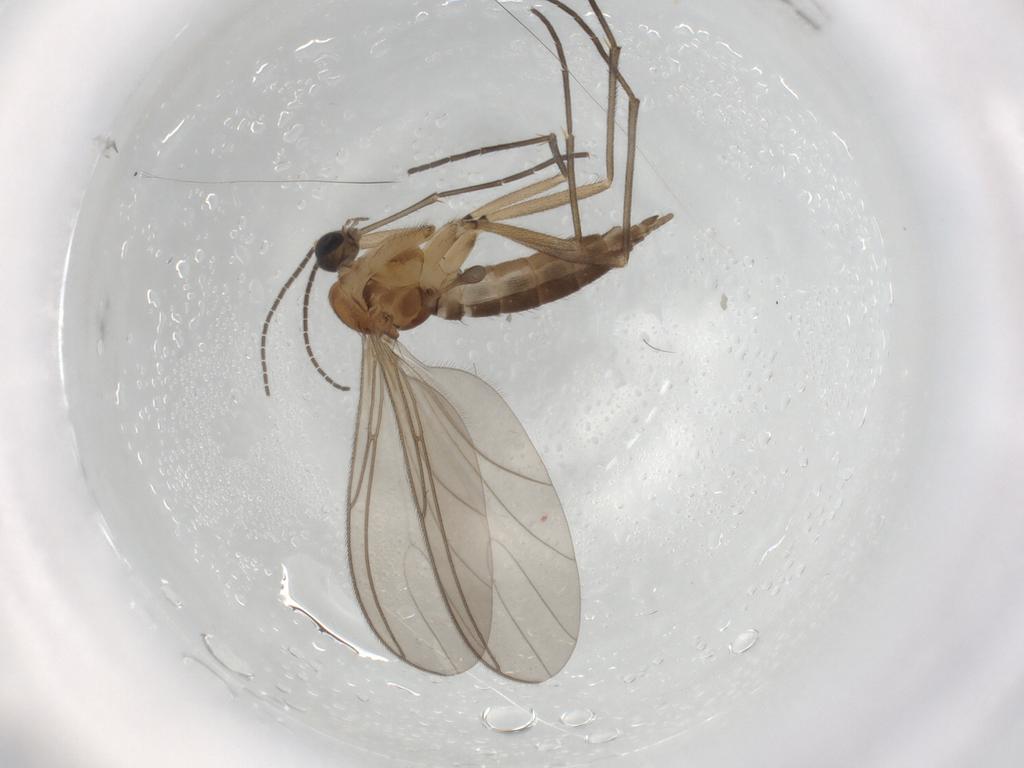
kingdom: Animalia
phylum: Arthropoda
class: Insecta
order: Diptera
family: Sciaridae
